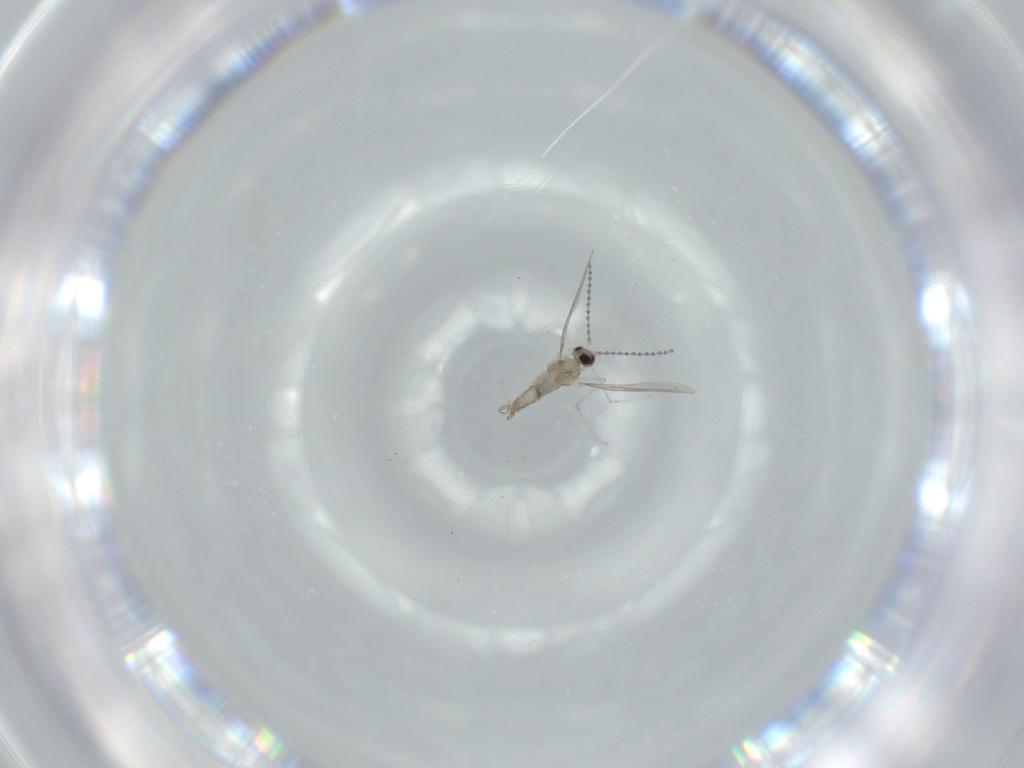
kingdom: Animalia
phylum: Arthropoda
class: Insecta
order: Diptera
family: Cecidomyiidae
